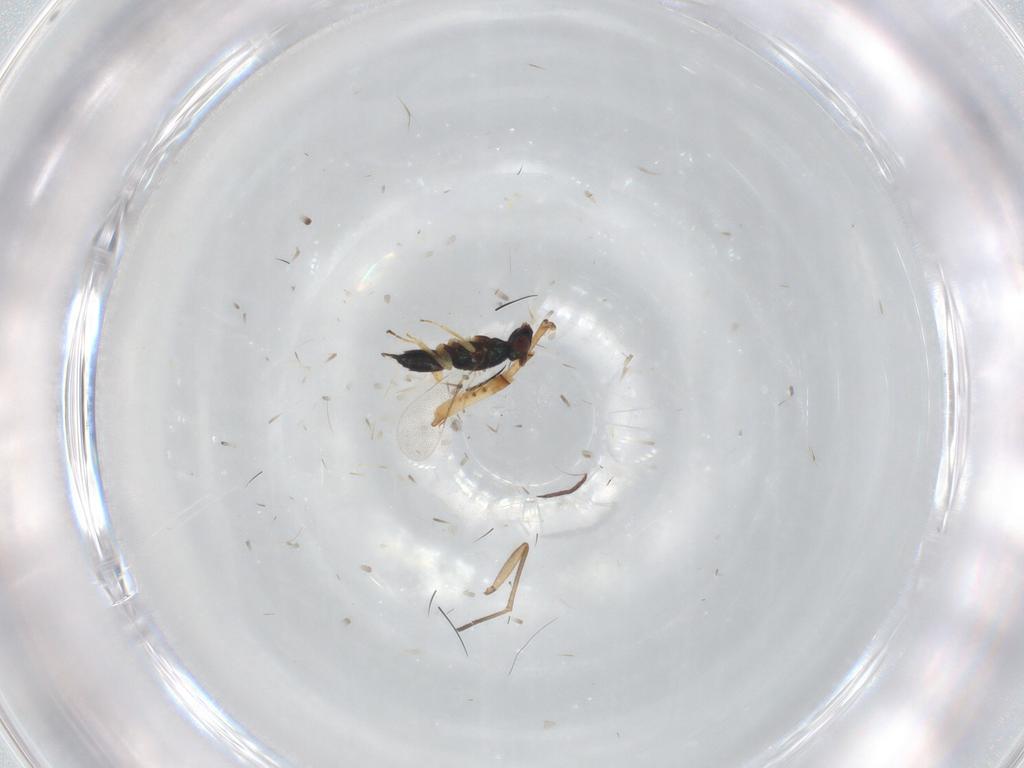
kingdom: Animalia
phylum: Arthropoda
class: Insecta
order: Hymenoptera
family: Eulophidae
